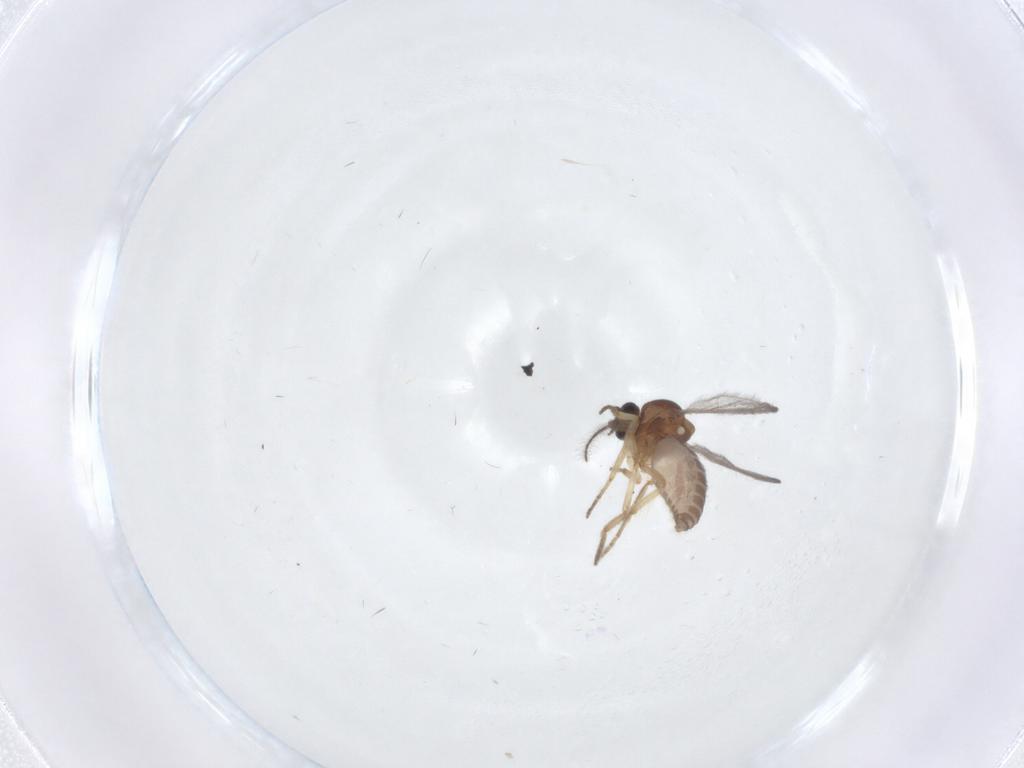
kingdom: Animalia
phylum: Arthropoda
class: Insecta
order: Diptera
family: Ceratopogonidae
